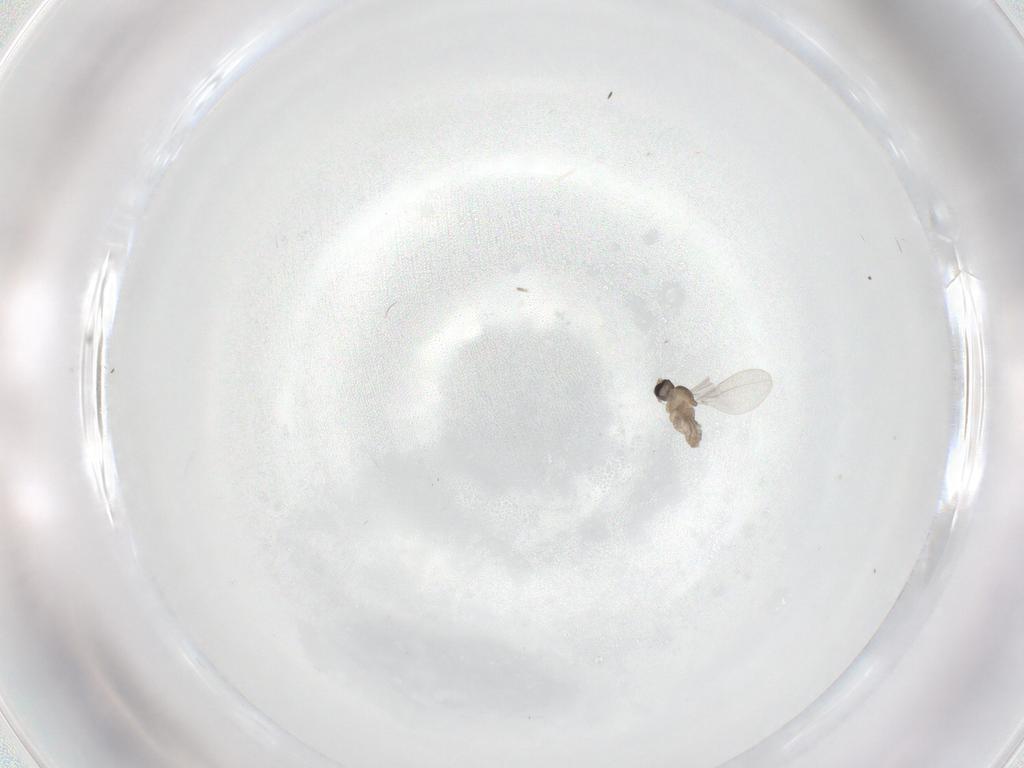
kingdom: Animalia
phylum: Arthropoda
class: Insecta
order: Diptera
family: Cecidomyiidae
